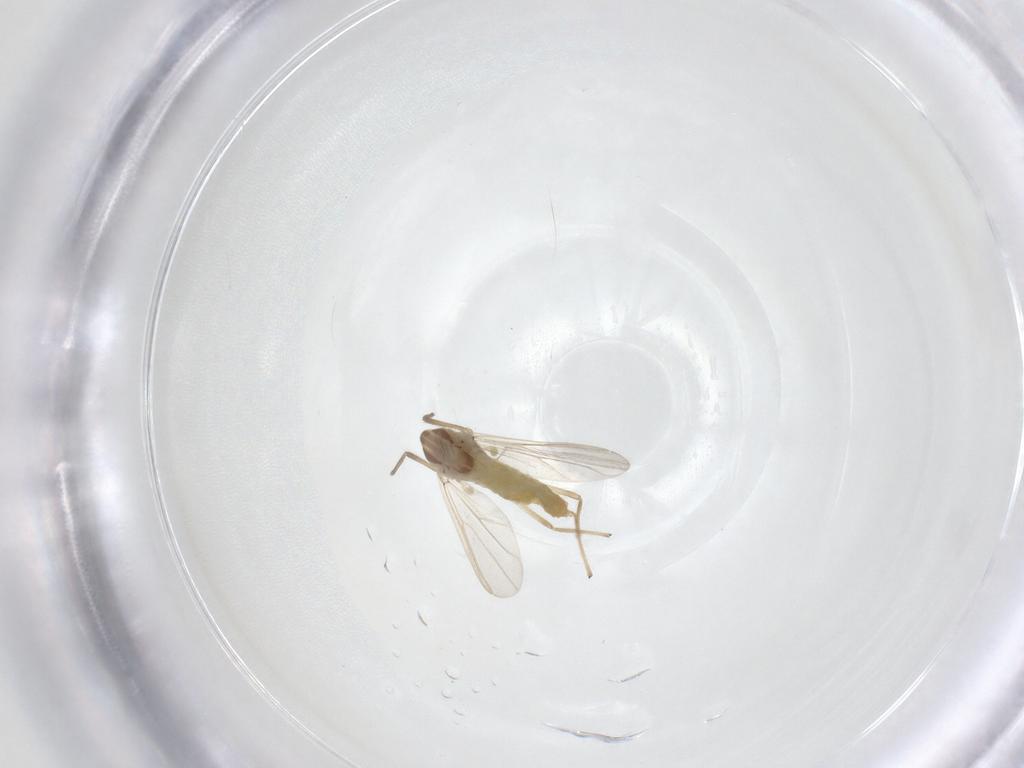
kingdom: Animalia
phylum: Arthropoda
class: Insecta
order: Diptera
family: Chironomidae
